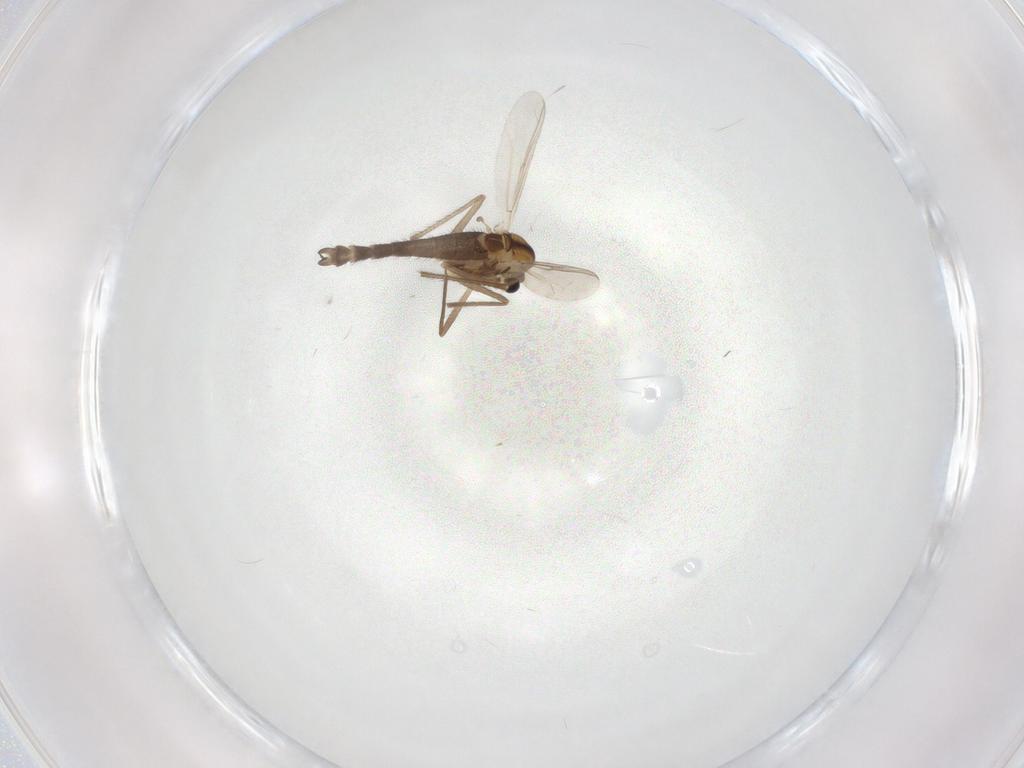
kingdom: Animalia
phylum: Arthropoda
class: Insecta
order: Diptera
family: Chironomidae
